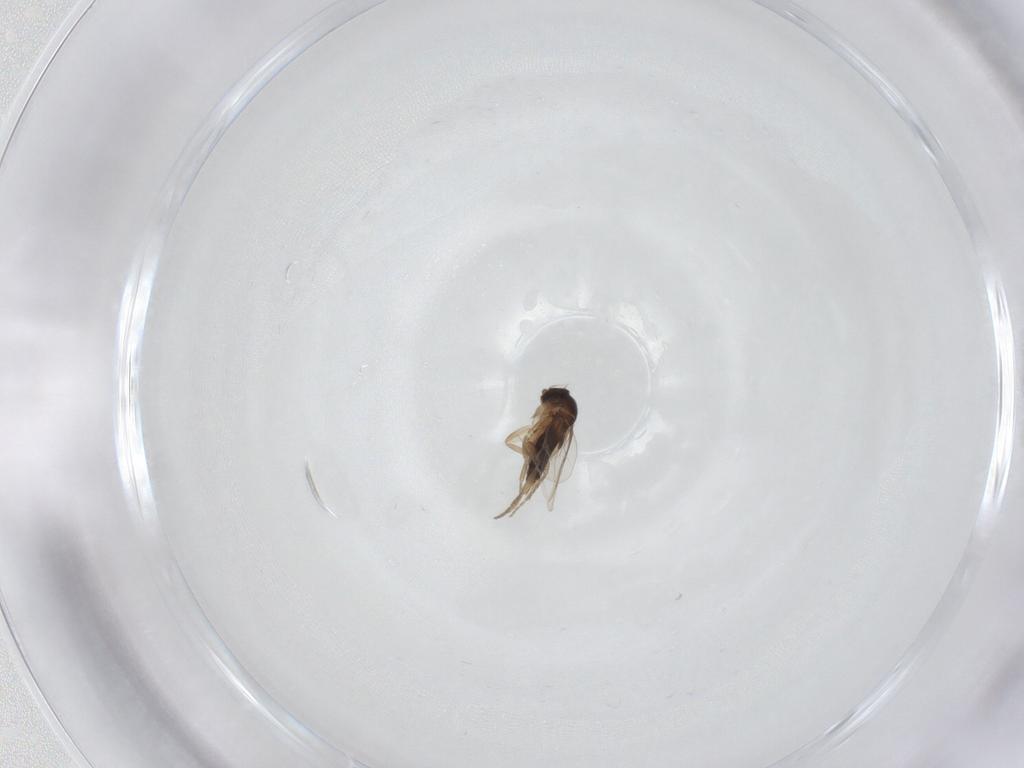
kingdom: Animalia
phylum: Arthropoda
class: Insecta
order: Diptera
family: Phoridae
